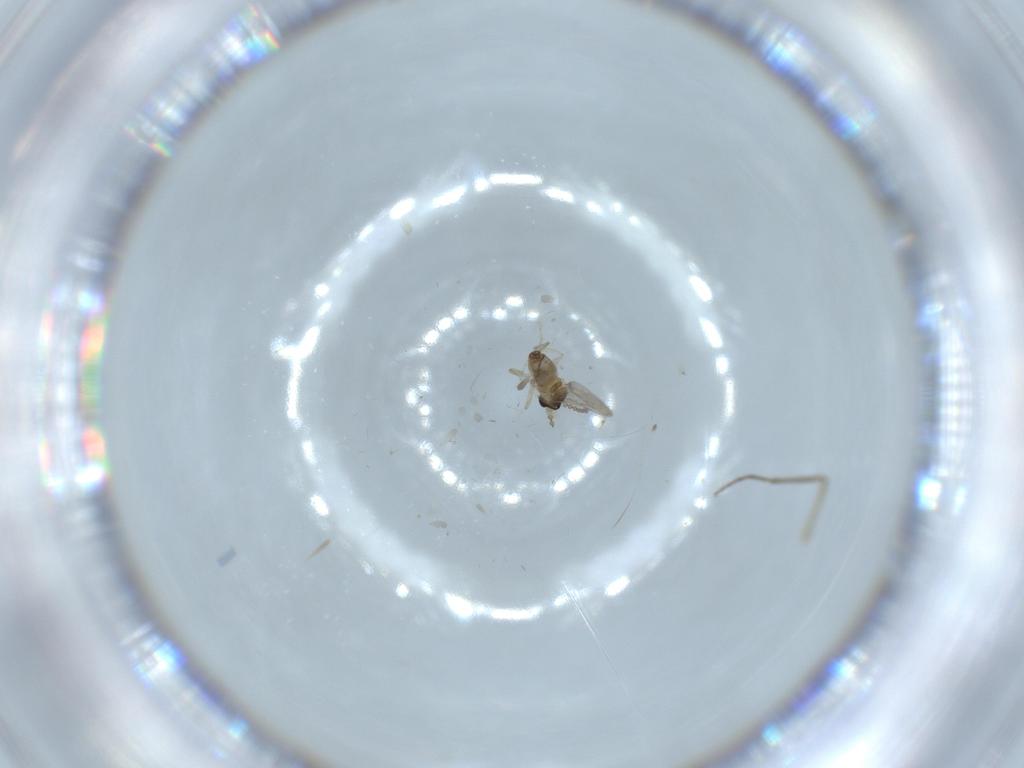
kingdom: Animalia
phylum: Arthropoda
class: Insecta
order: Diptera
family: Cecidomyiidae
